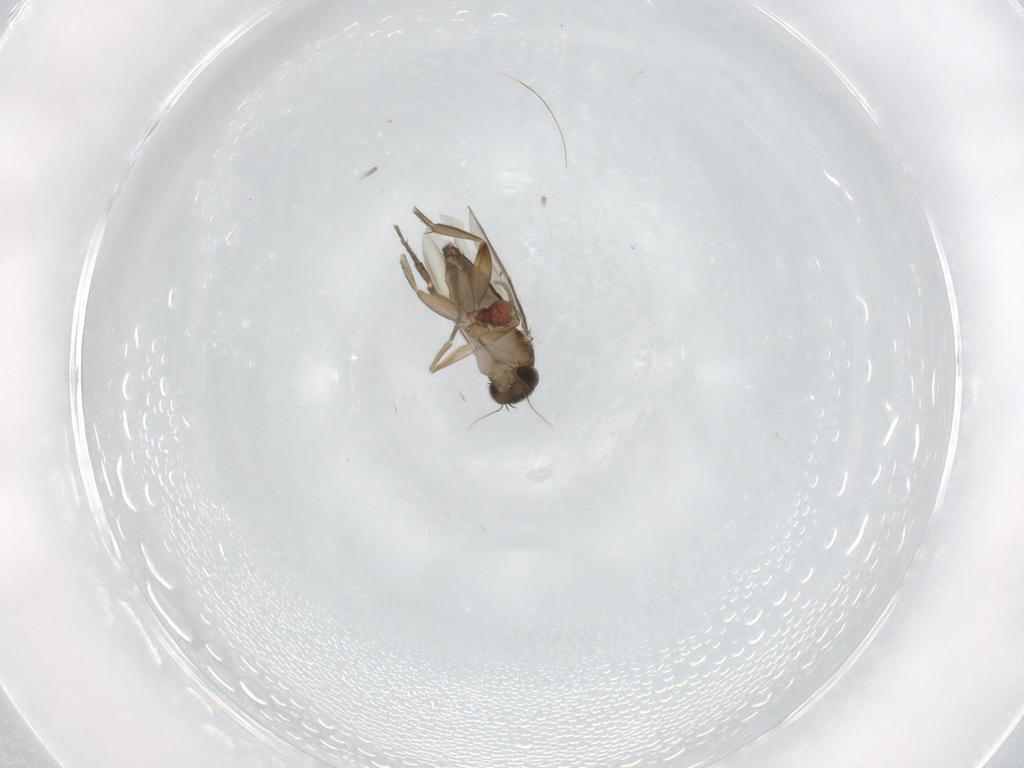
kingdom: Animalia
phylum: Arthropoda
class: Insecta
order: Diptera
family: Phoridae
